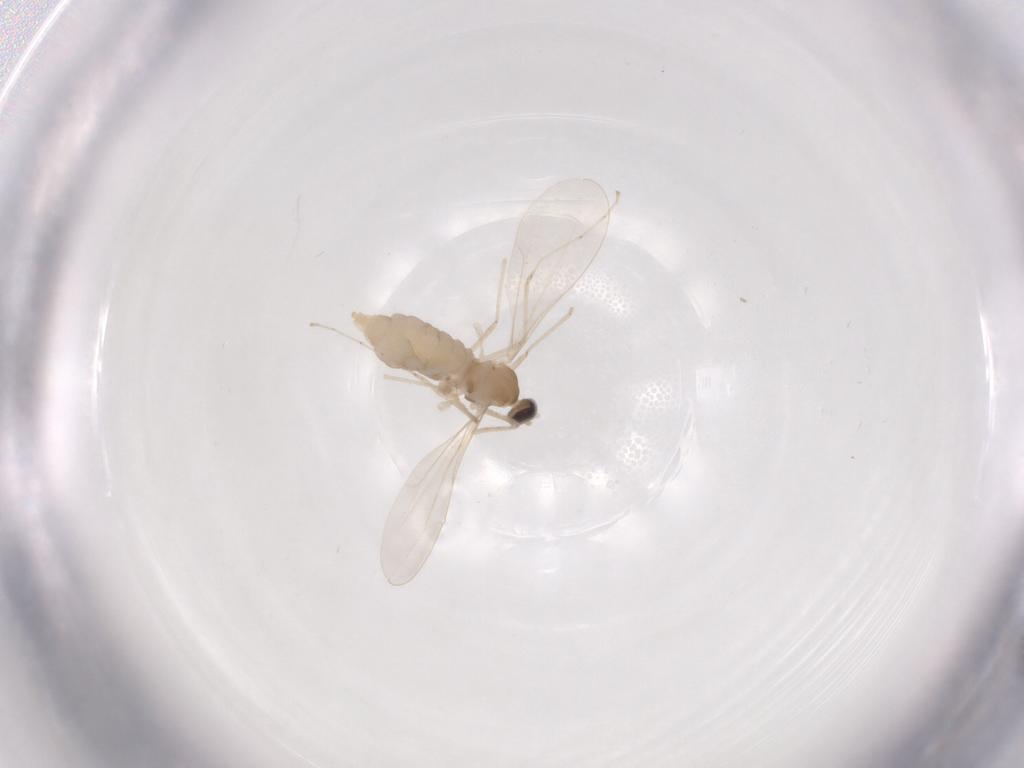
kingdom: Animalia
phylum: Arthropoda
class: Insecta
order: Diptera
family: Cecidomyiidae
